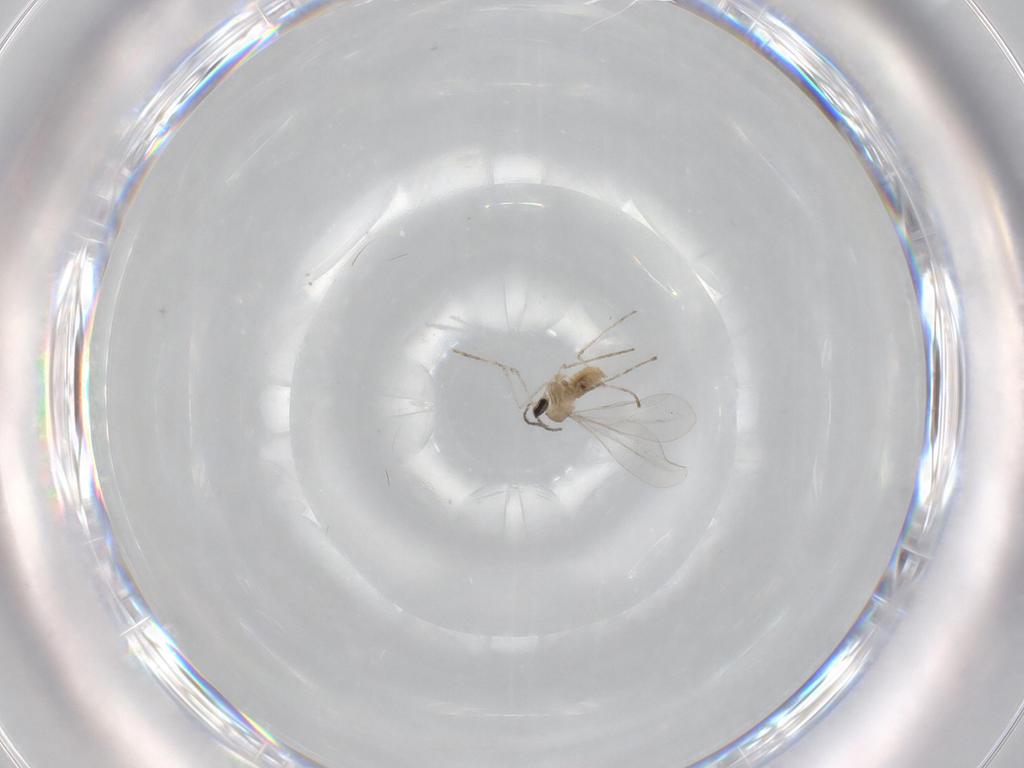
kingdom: Animalia
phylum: Arthropoda
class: Insecta
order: Diptera
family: Cecidomyiidae
